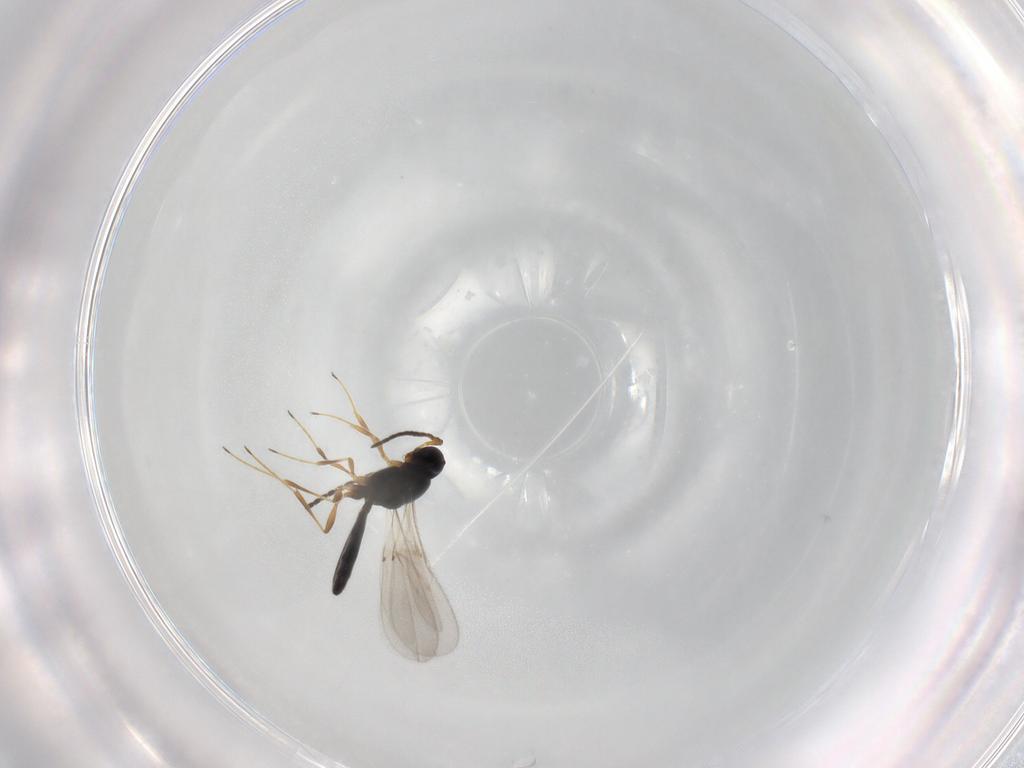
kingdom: Animalia
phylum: Arthropoda
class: Insecta
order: Hymenoptera
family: Scelionidae
